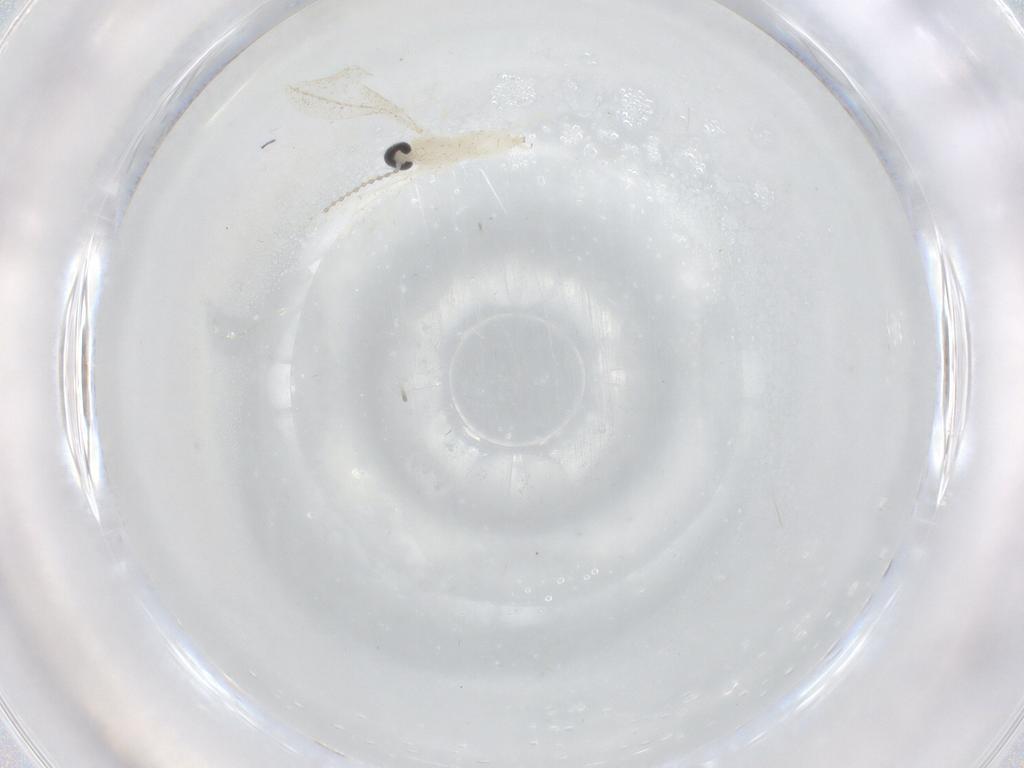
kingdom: Animalia
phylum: Arthropoda
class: Insecta
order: Diptera
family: Cecidomyiidae
